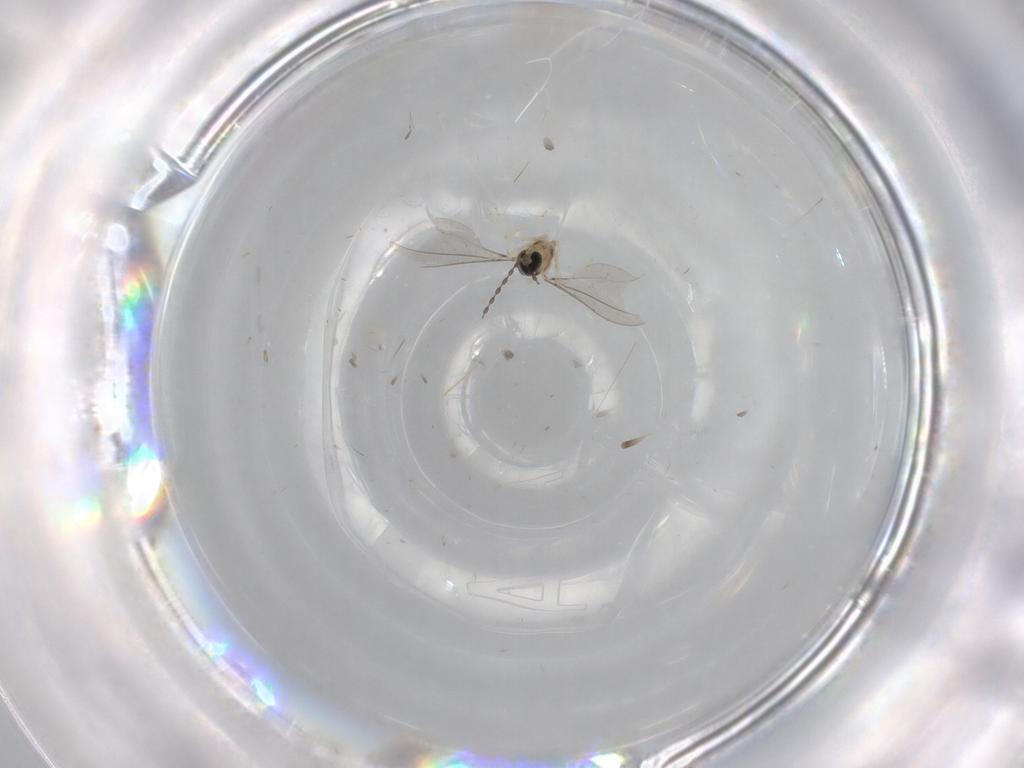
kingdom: Animalia
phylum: Arthropoda
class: Insecta
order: Diptera
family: Cecidomyiidae
